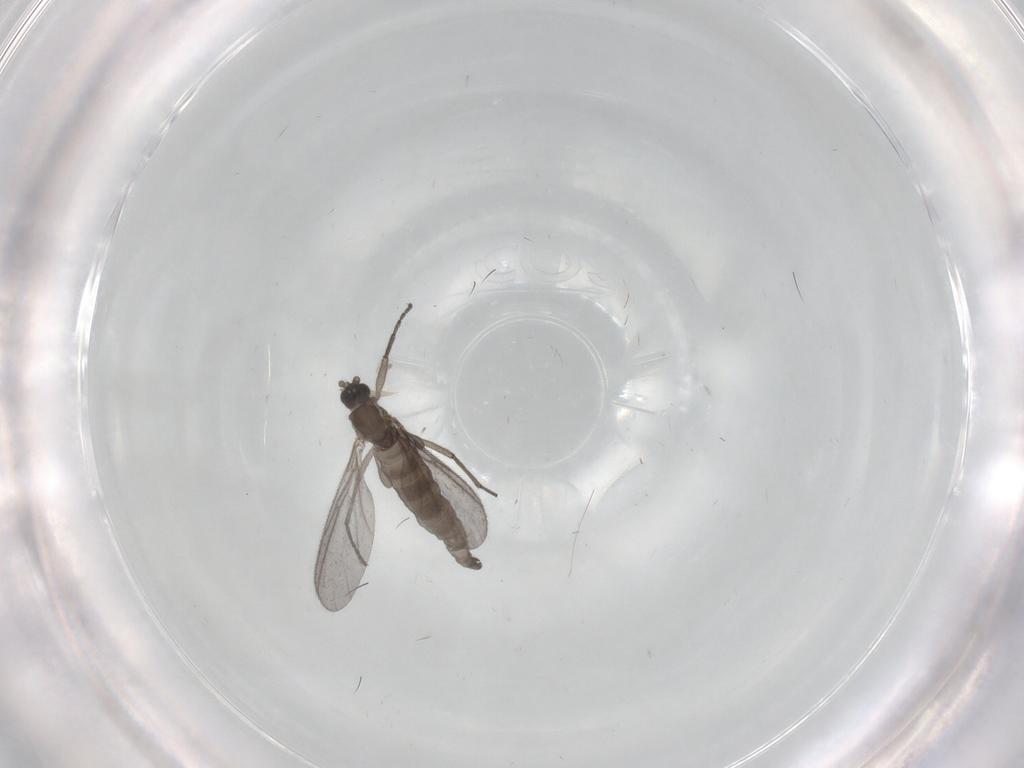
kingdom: Animalia
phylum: Arthropoda
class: Insecta
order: Diptera
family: Sciaridae
